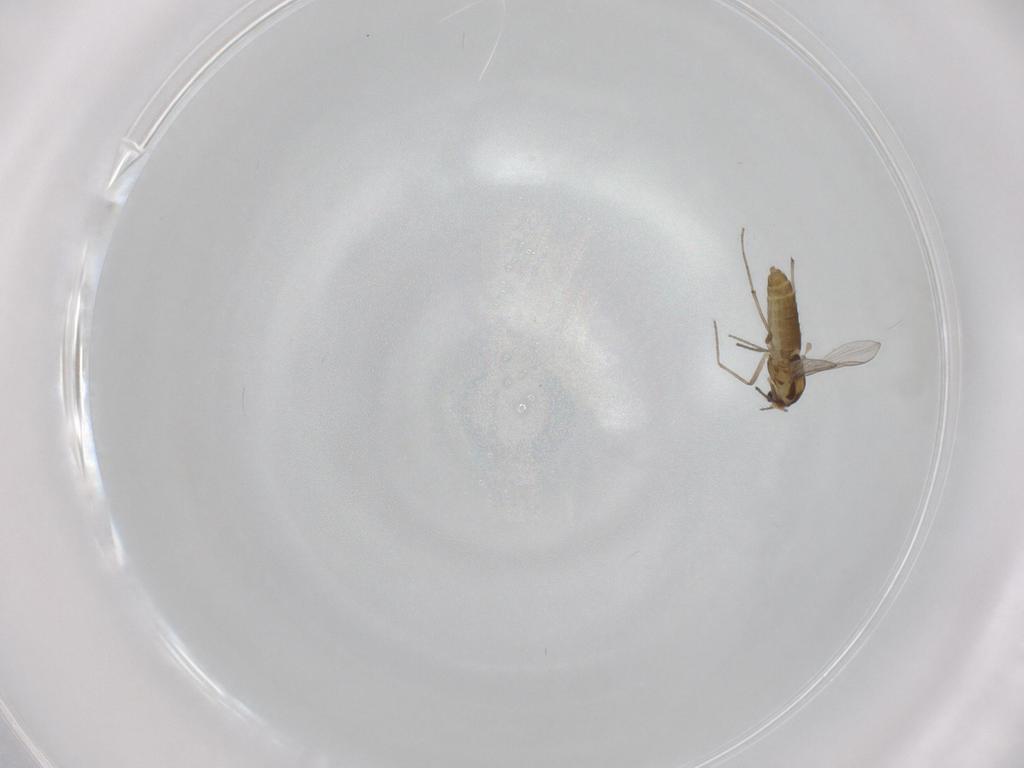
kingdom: Animalia
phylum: Arthropoda
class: Insecta
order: Diptera
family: Chironomidae
